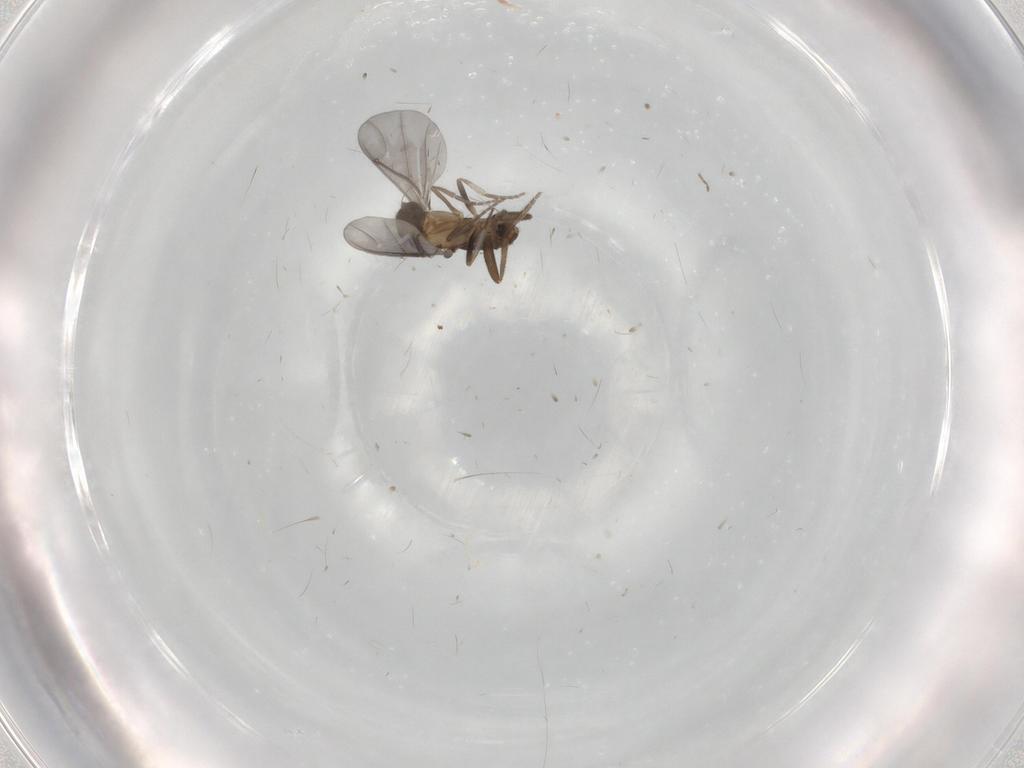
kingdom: Animalia
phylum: Arthropoda
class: Insecta
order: Diptera
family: Phoridae
